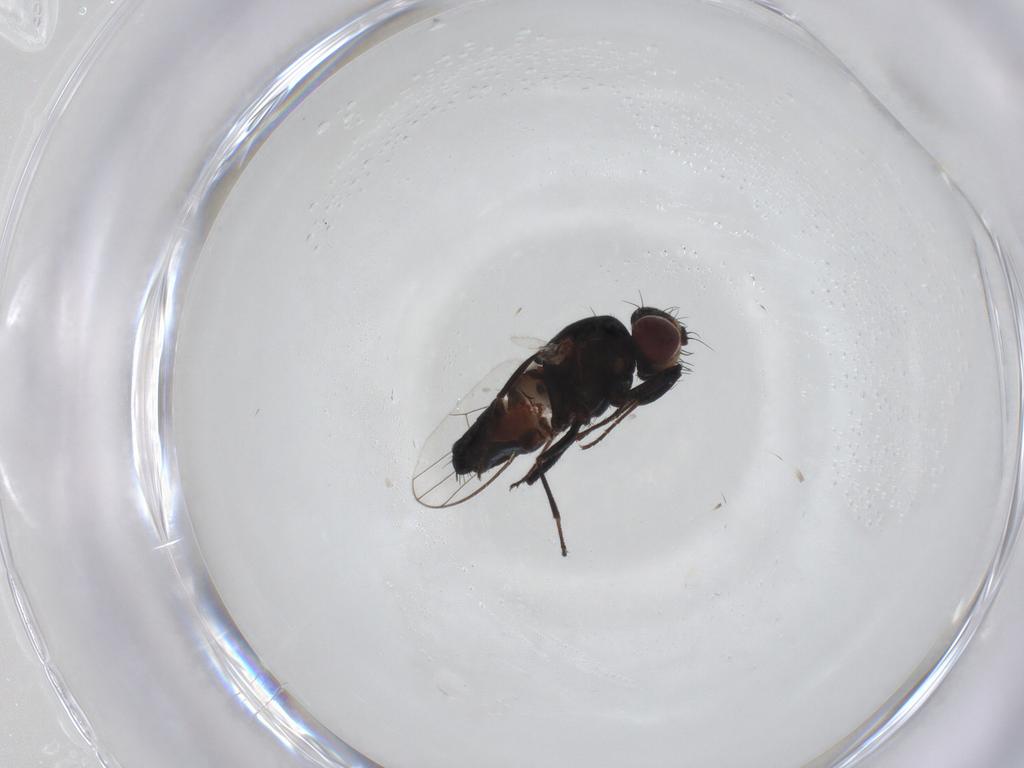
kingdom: Animalia
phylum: Arthropoda
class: Insecta
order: Diptera
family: Carnidae
